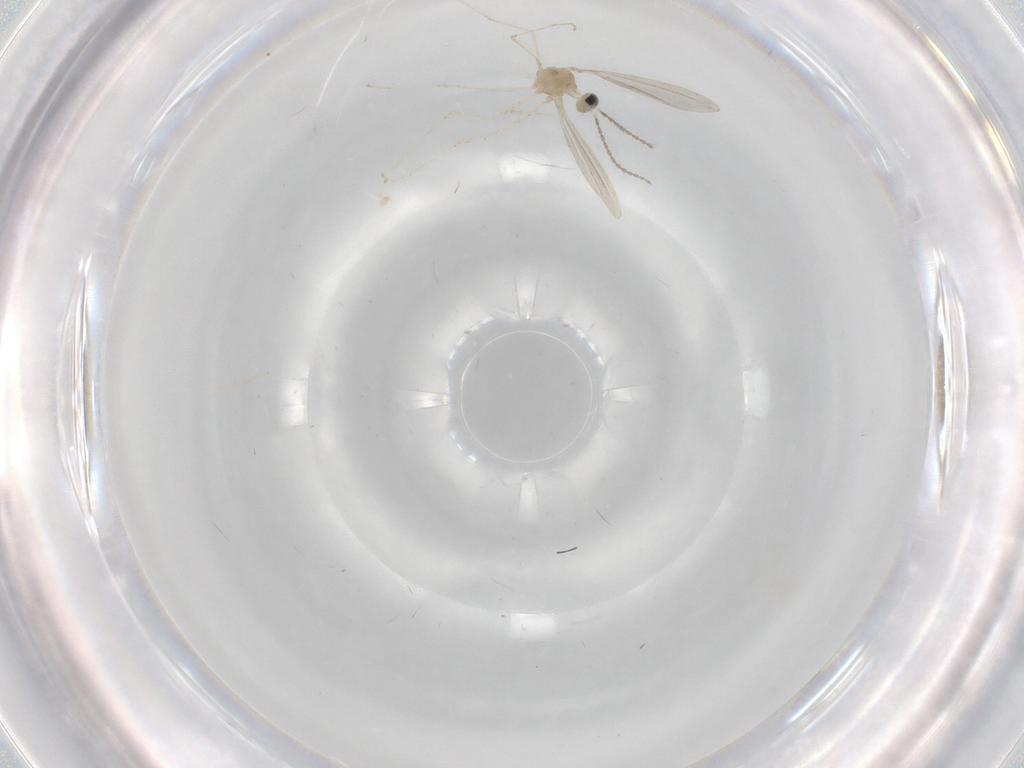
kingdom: Animalia
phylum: Arthropoda
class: Insecta
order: Diptera
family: Cecidomyiidae
